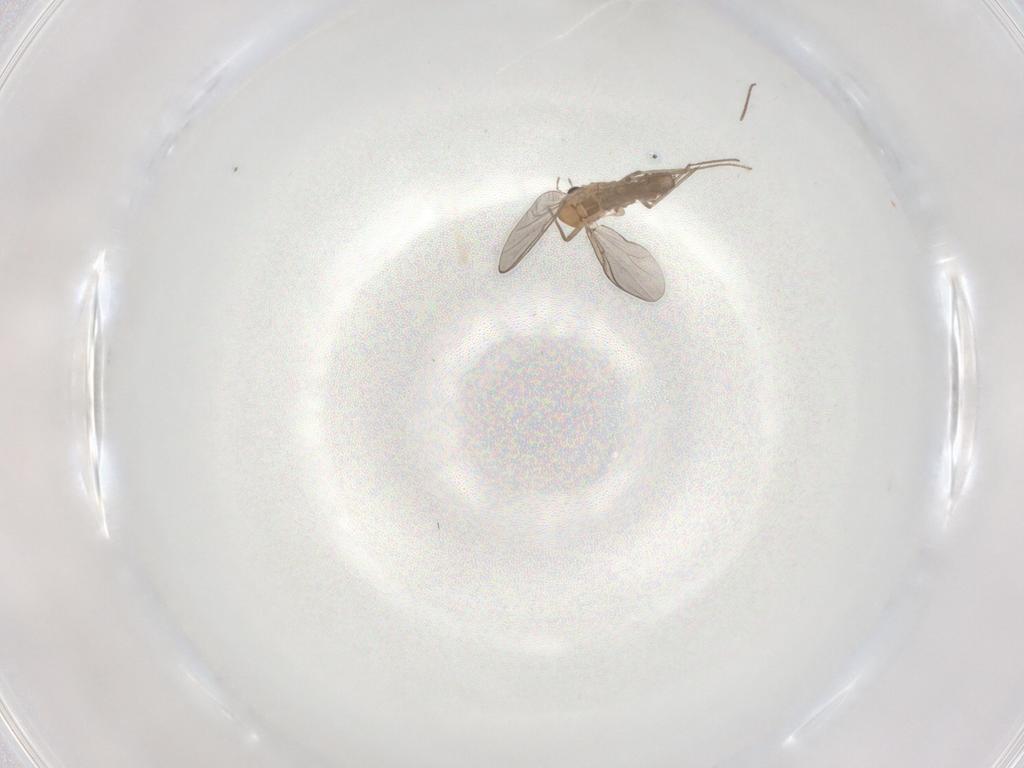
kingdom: Animalia
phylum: Arthropoda
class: Insecta
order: Diptera
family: Chironomidae
